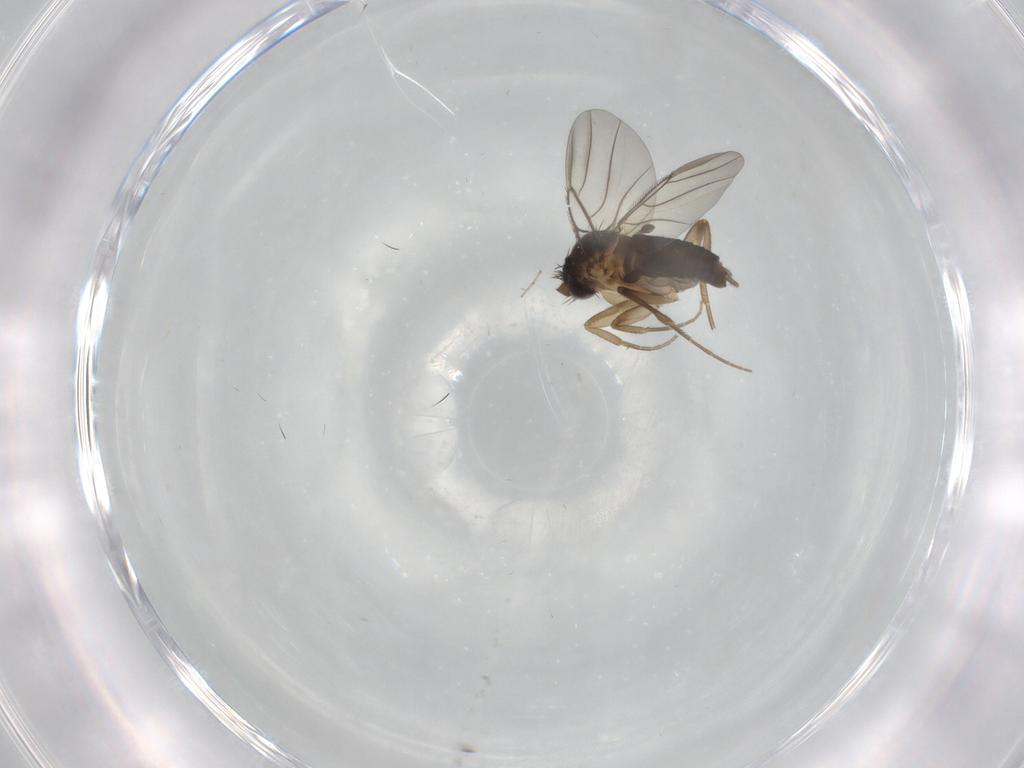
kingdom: Animalia
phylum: Arthropoda
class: Insecta
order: Diptera
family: Phoridae
